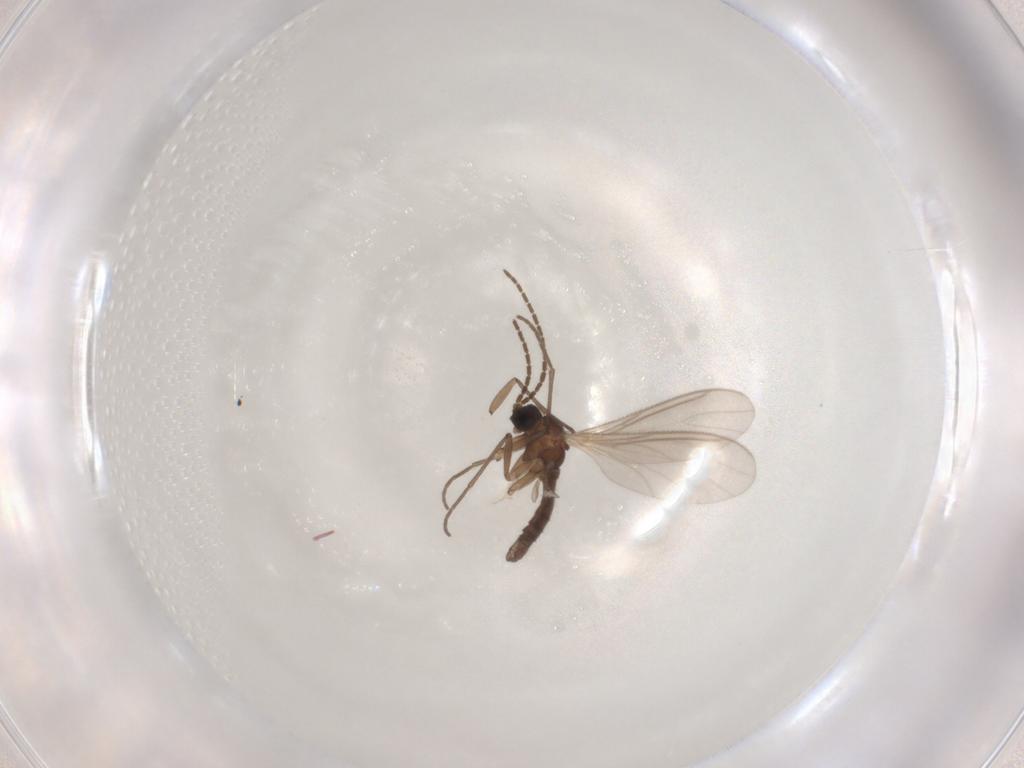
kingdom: Animalia
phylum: Arthropoda
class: Insecta
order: Diptera
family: Sciaridae
